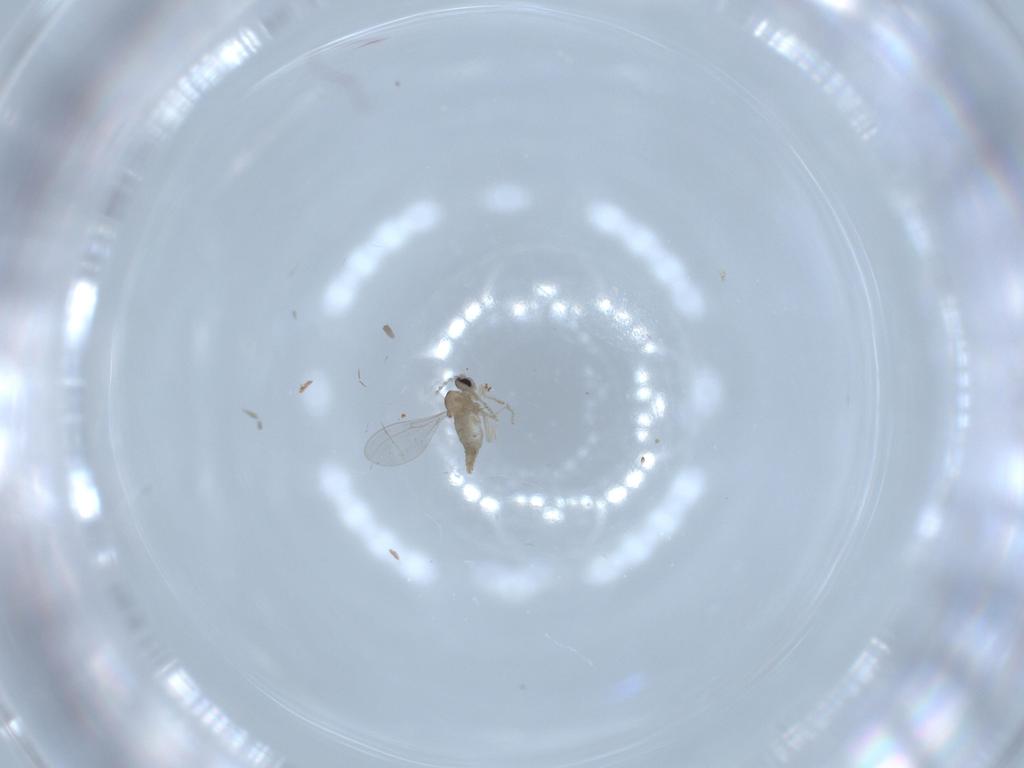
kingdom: Animalia
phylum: Arthropoda
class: Insecta
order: Diptera
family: Cecidomyiidae
